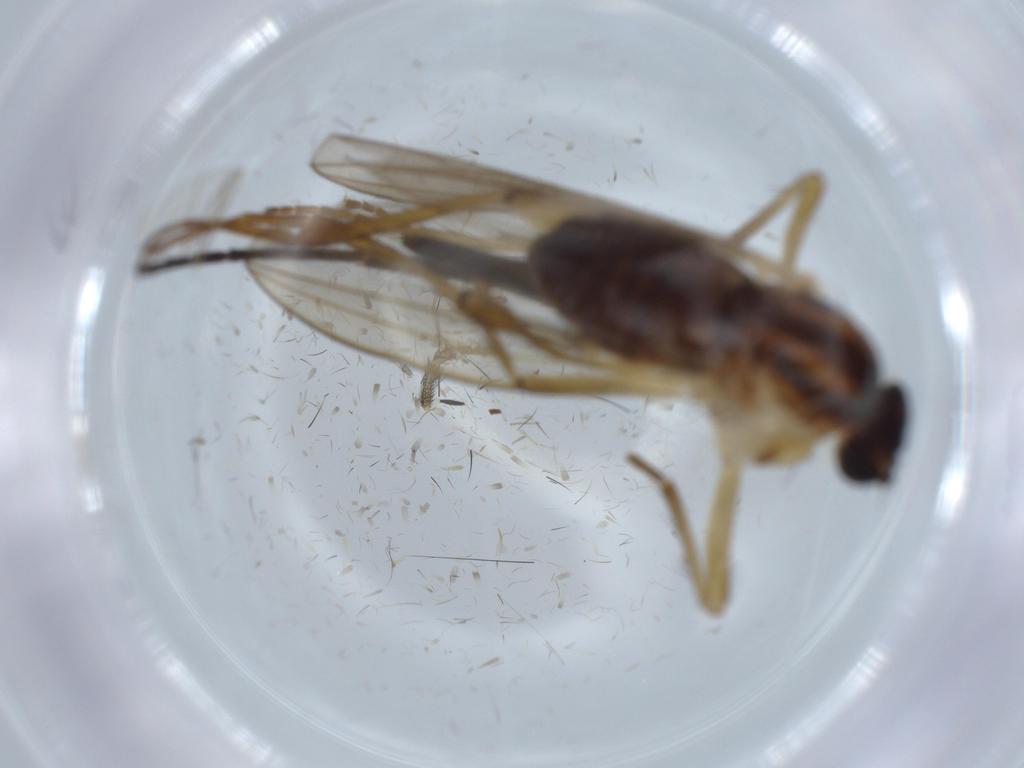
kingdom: Animalia
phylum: Arthropoda
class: Insecta
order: Diptera
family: Lonchopteridae
